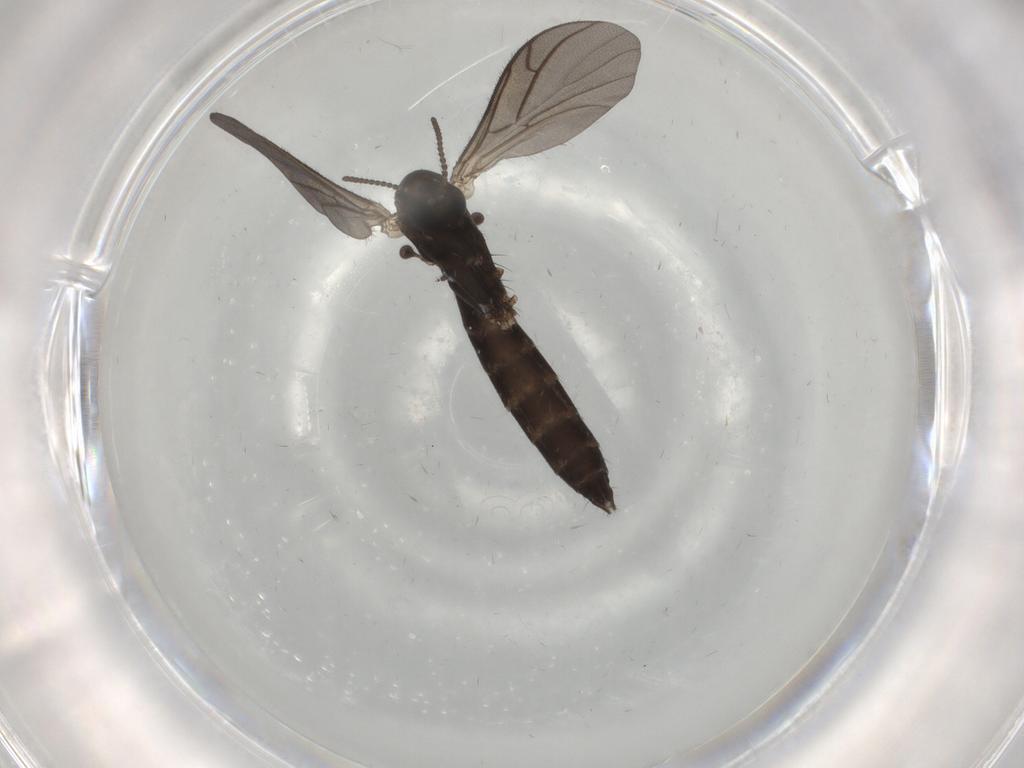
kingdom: Animalia
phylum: Arthropoda
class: Insecta
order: Diptera
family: Ditomyiidae
